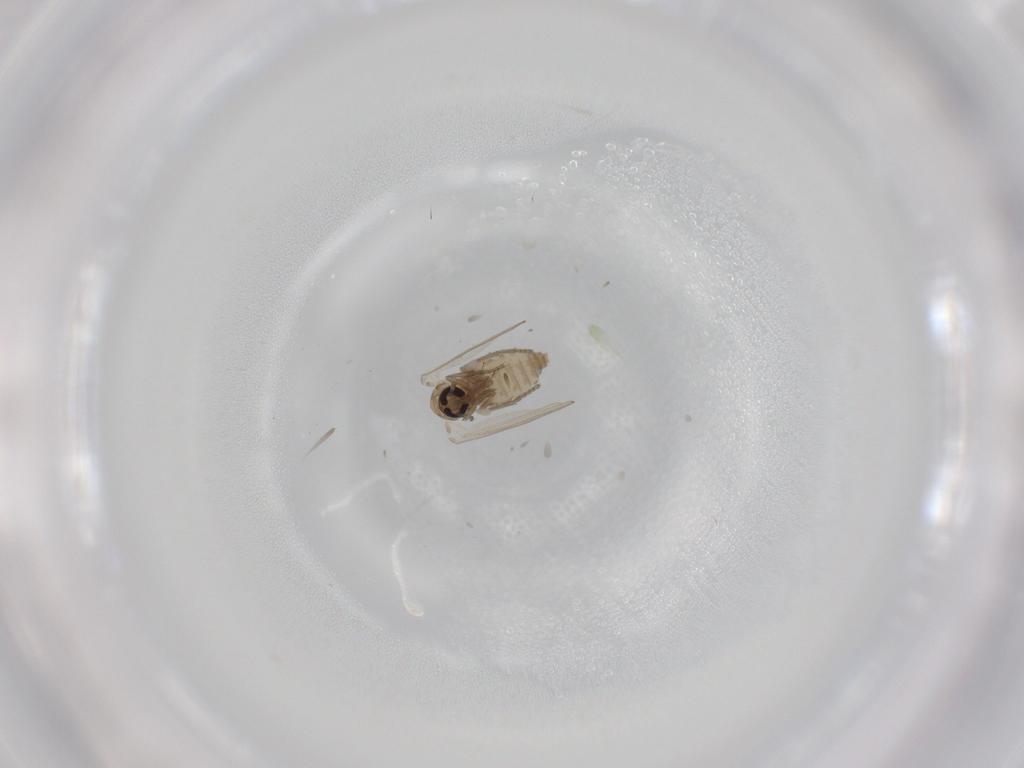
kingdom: Animalia
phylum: Arthropoda
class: Insecta
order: Diptera
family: Psychodidae
